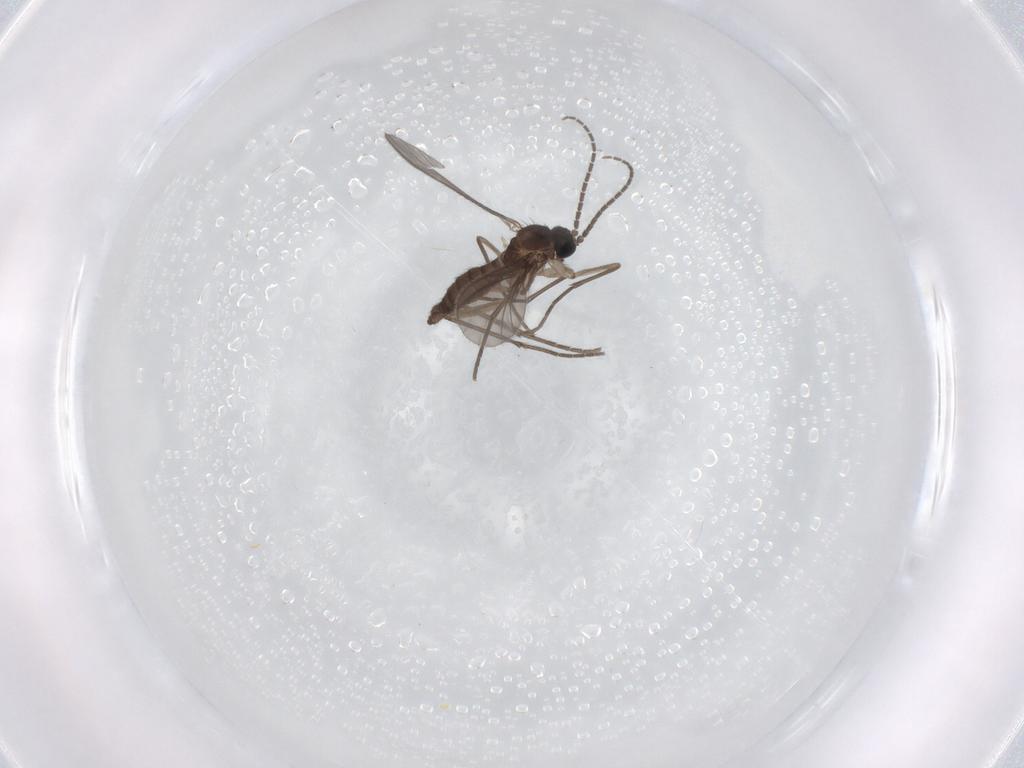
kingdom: Animalia
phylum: Arthropoda
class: Insecta
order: Diptera
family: Sciaridae
